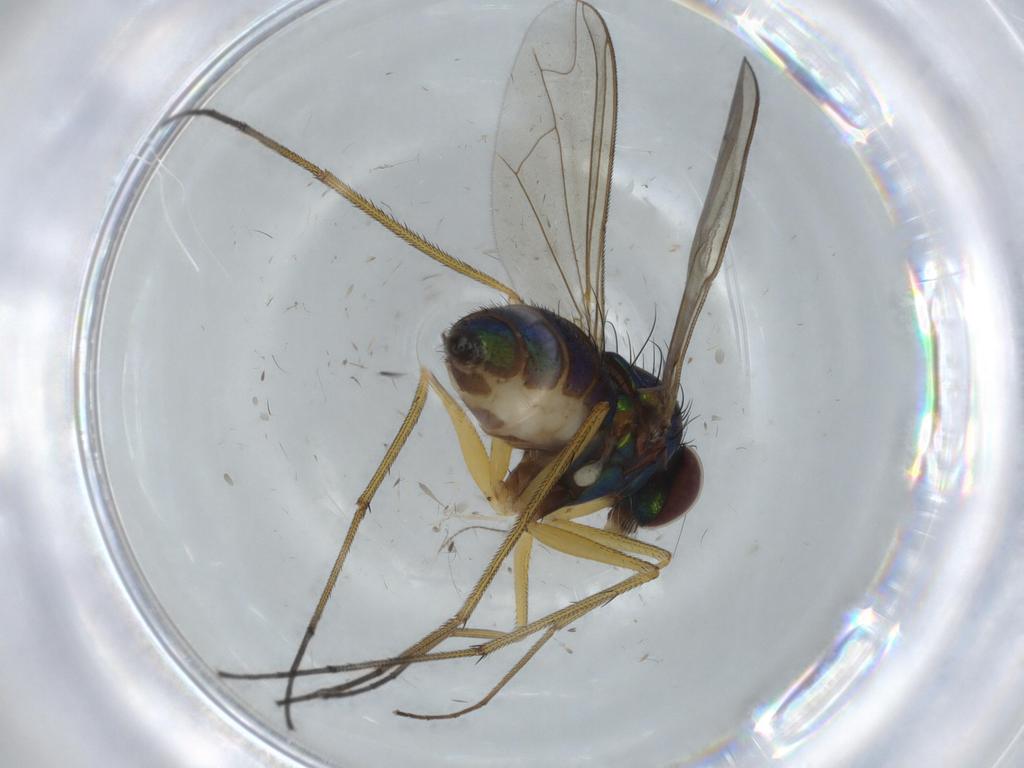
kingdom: Animalia
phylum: Arthropoda
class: Insecta
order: Diptera
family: Dolichopodidae
